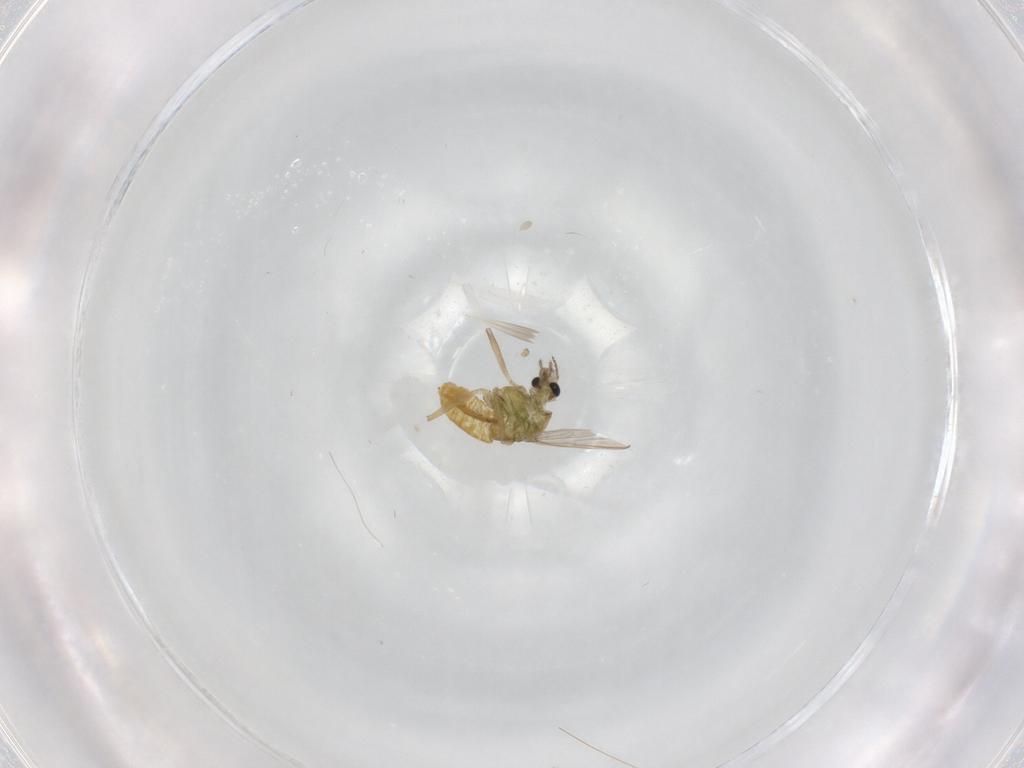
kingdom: Animalia
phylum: Arthropoda
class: Insecta
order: Diptera
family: Chironomidae
